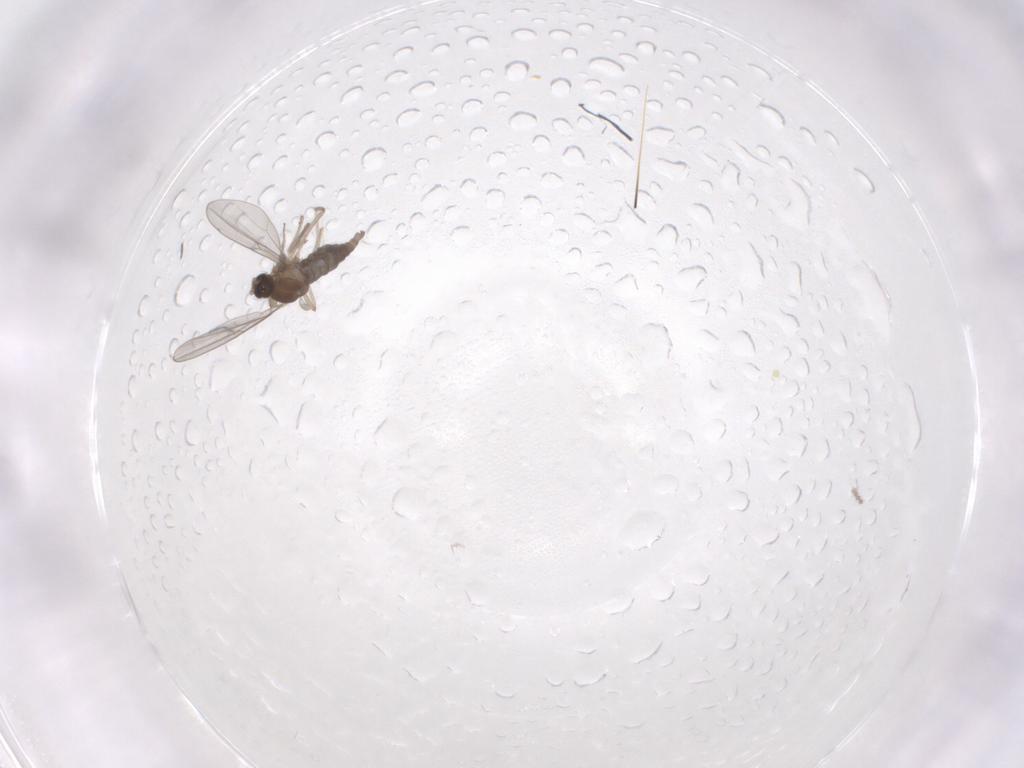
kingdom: Animalia
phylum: Arthropoda
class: Insecta
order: Diptera
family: Cecidomyiidae
